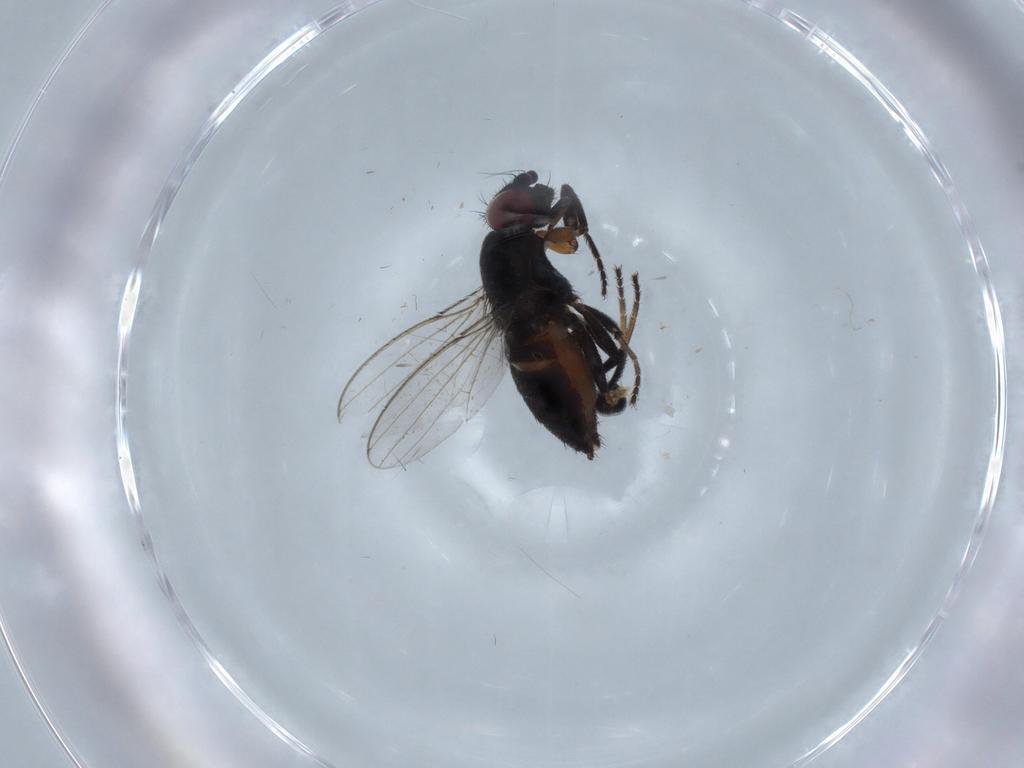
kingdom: Animalia
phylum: Arthropoda
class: Insecta
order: Diptera
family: Milichiidae
